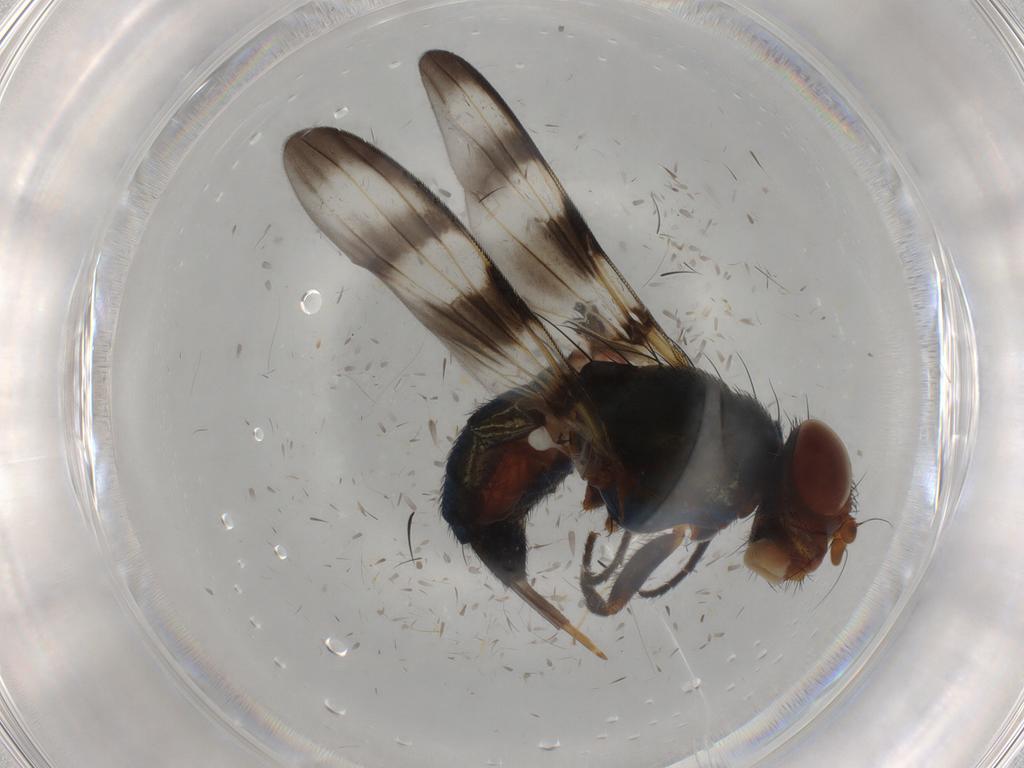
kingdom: Animalia
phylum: Arthropoda
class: Insecta
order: Diptera
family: Chironomidae
